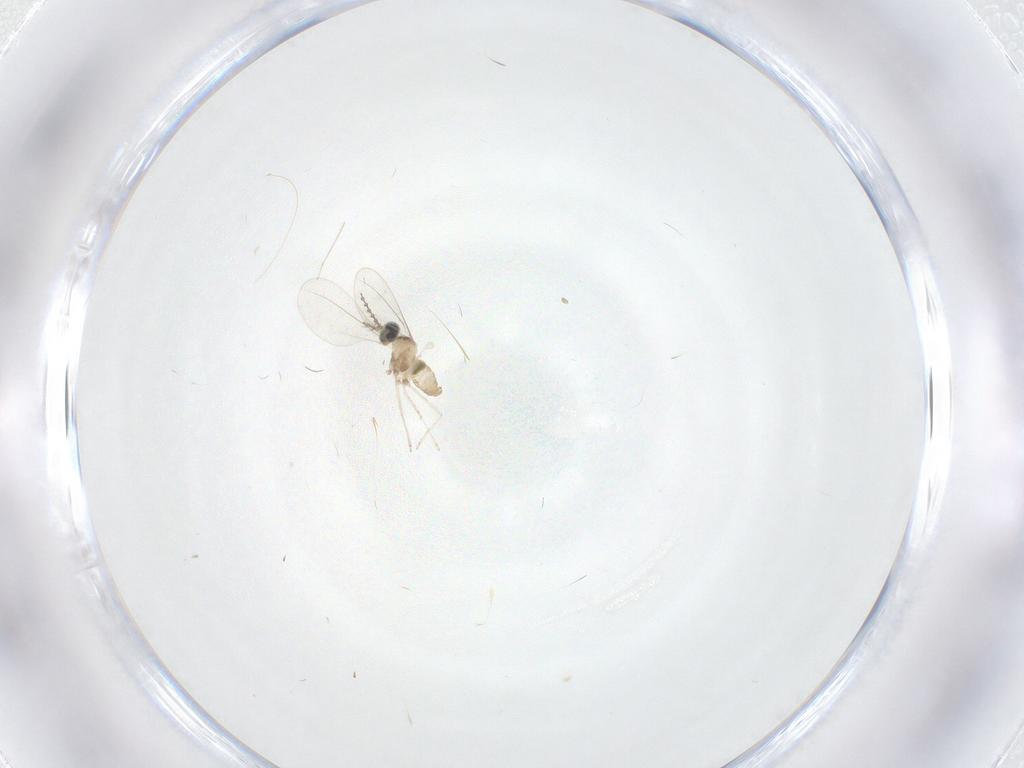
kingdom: Animalia
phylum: Arthropoda
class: Insecta
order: Diptera
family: Cecidomyiidae
